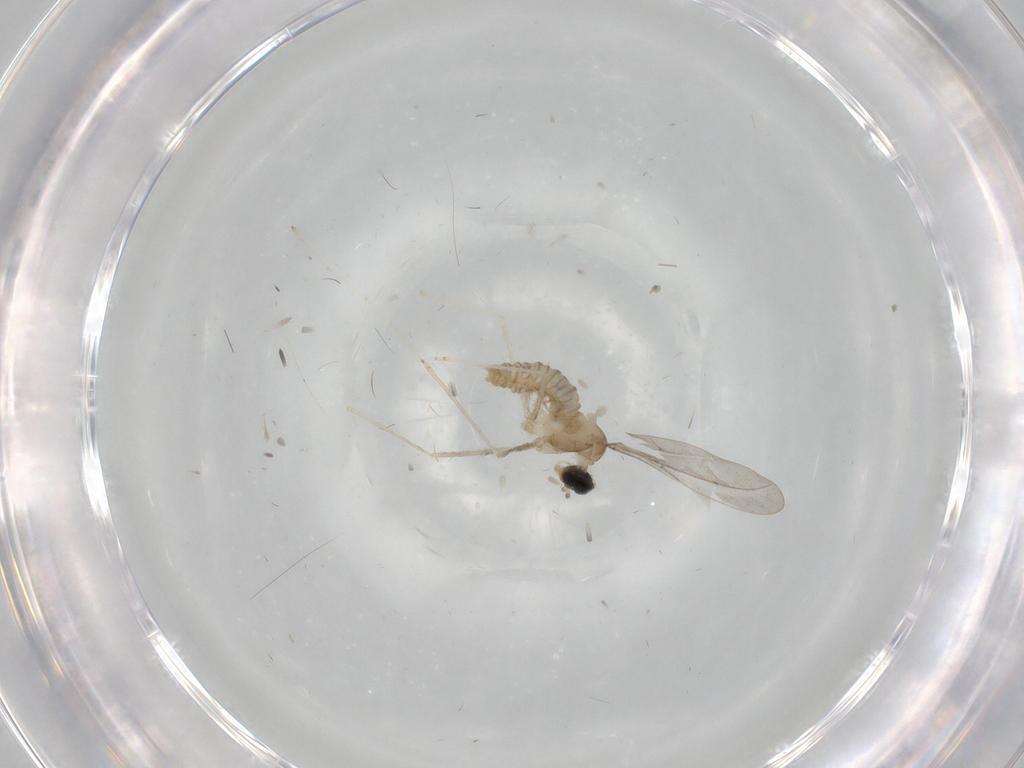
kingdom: Animalia
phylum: Arthropoda
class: Insecta
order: Diptera
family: Cecidomyiidae
